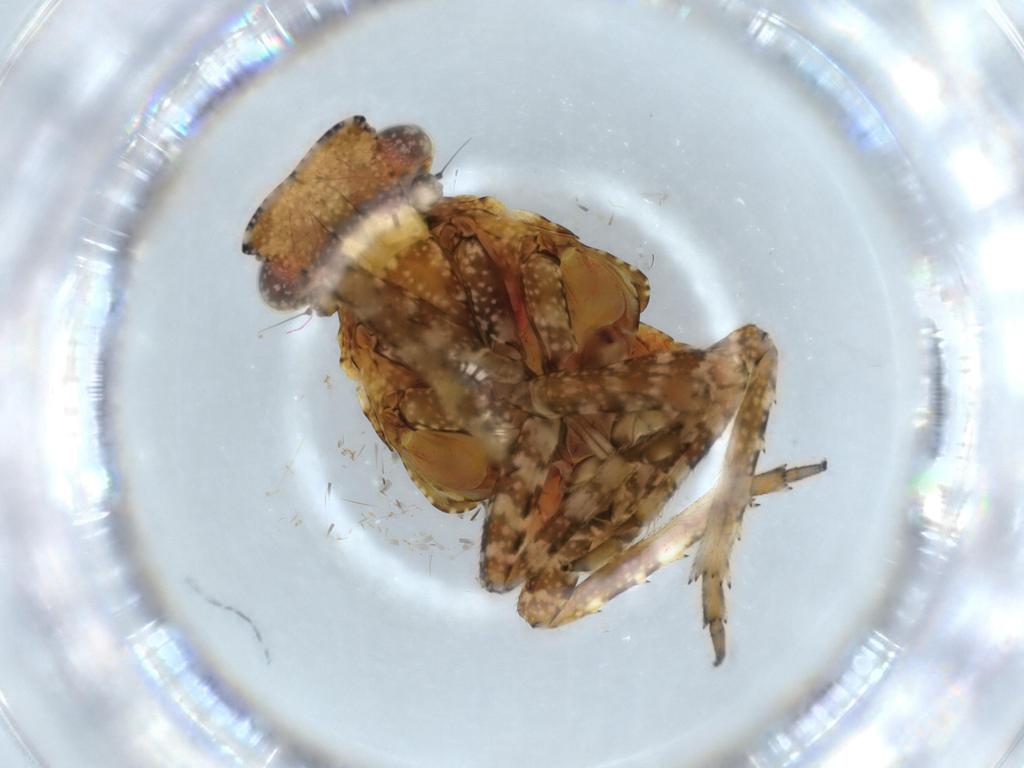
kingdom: Animalia
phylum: Arthropoda
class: Insecta
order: Hemiptera
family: Fulgoridae
